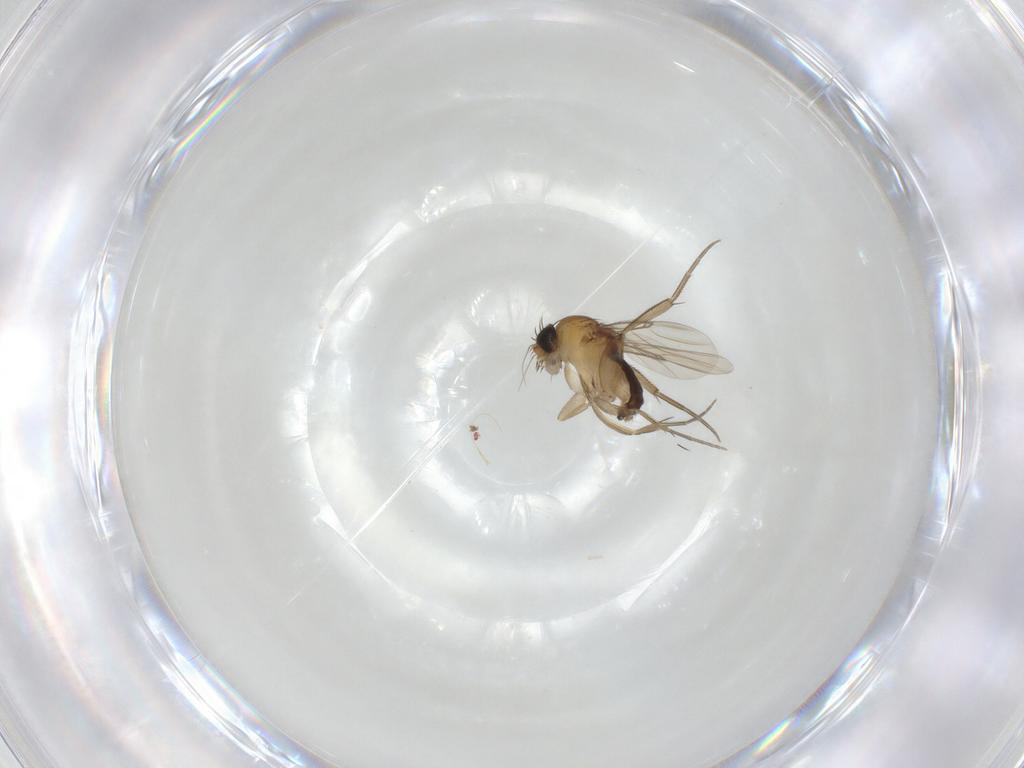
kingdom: Animalia
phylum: Arthropoda
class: Insecta
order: Diptera
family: Phoridae
